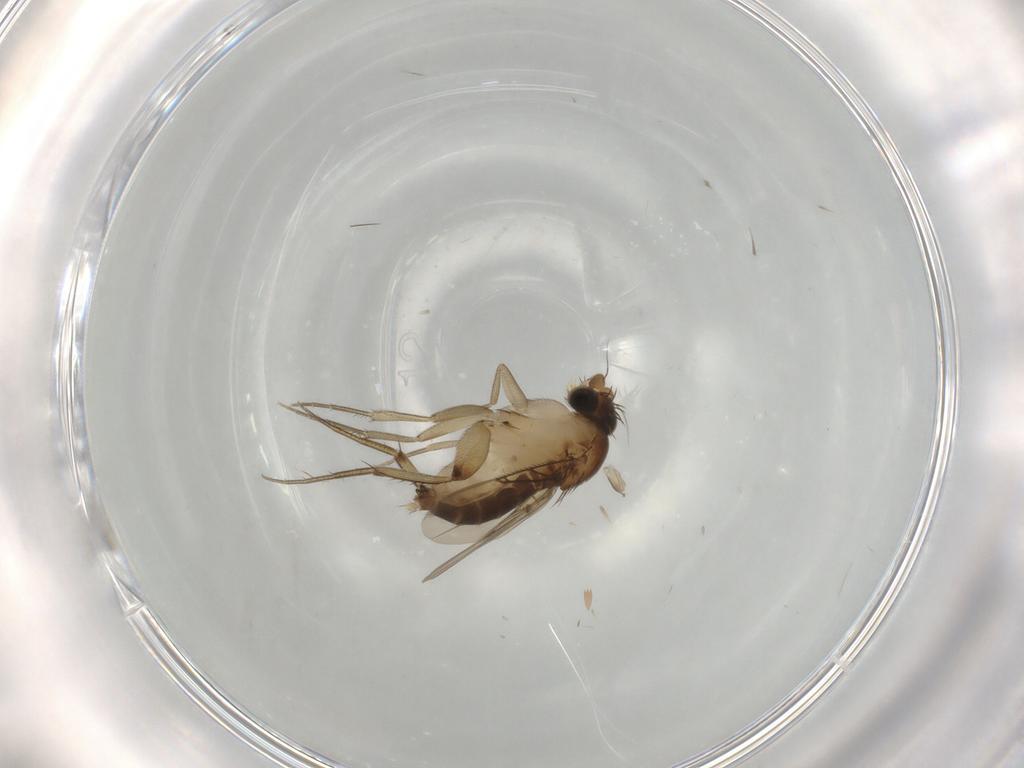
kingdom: Animalia
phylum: Arthropoda
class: Insecta
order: Diptera
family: Phoridae
